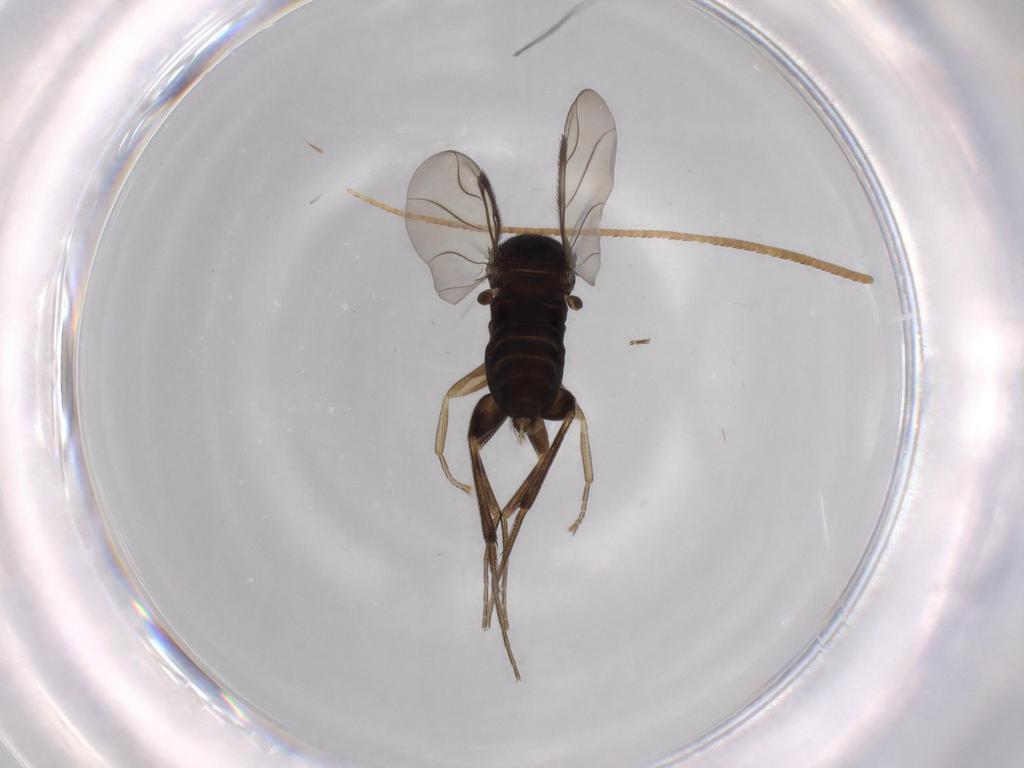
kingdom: Animalia
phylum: Arthropoda
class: Insecta
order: Diptera
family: Phoridae
